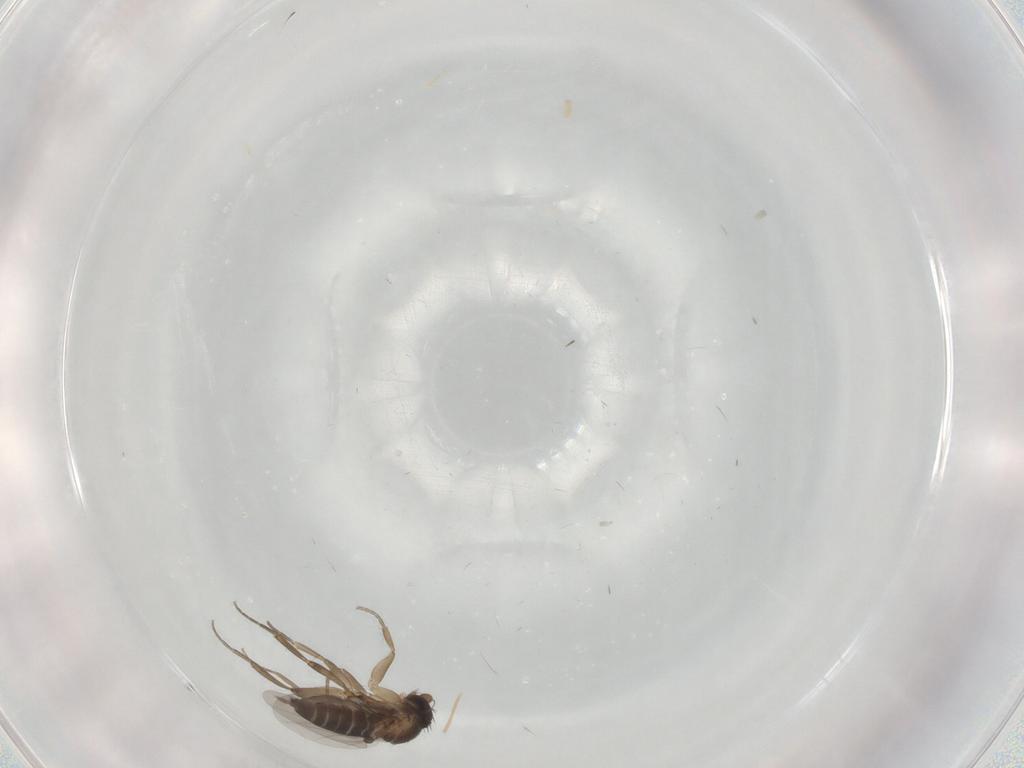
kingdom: Animalia
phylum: Arthropoda
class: Insecta
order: Diptera
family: Phoridae
